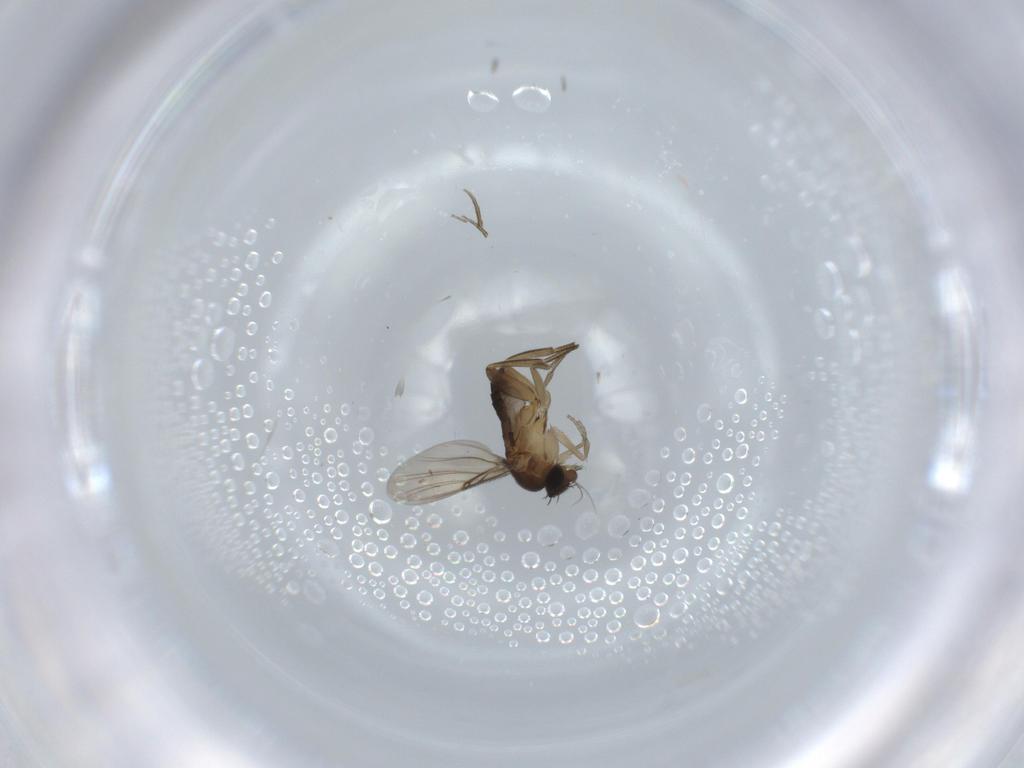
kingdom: Animalia
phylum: Arthropoda
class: Insecta
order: Diptera
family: Phoridae
